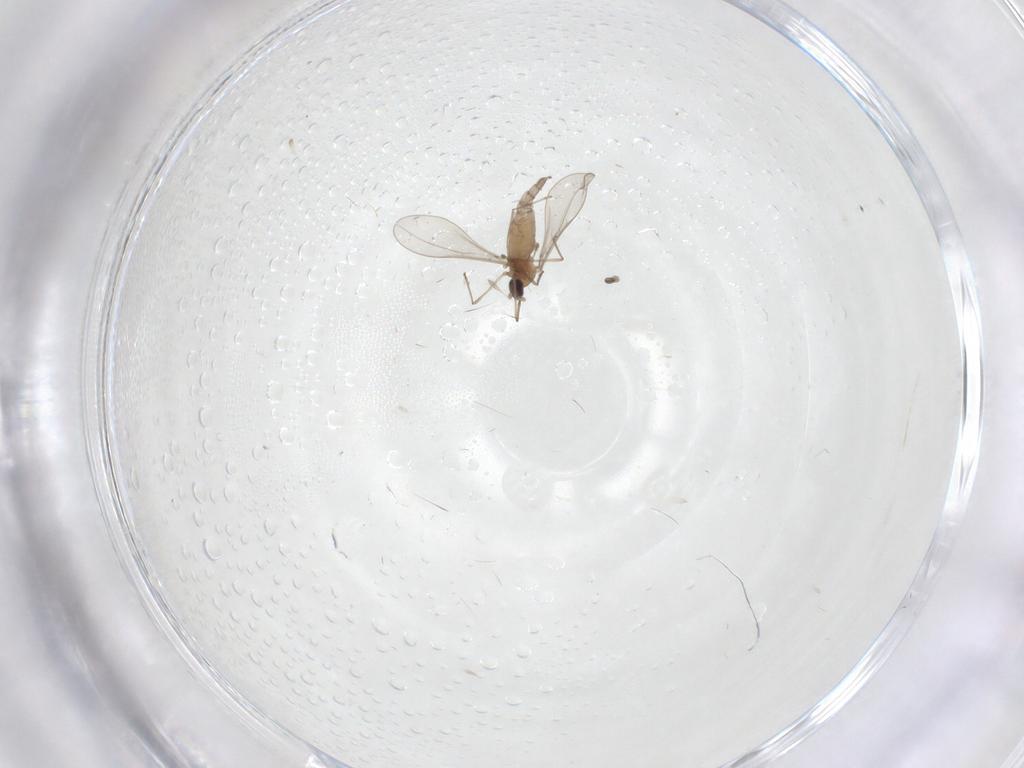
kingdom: Animalia
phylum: Arthropoda
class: Insecta
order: Diptera
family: Cecidomyiidae
